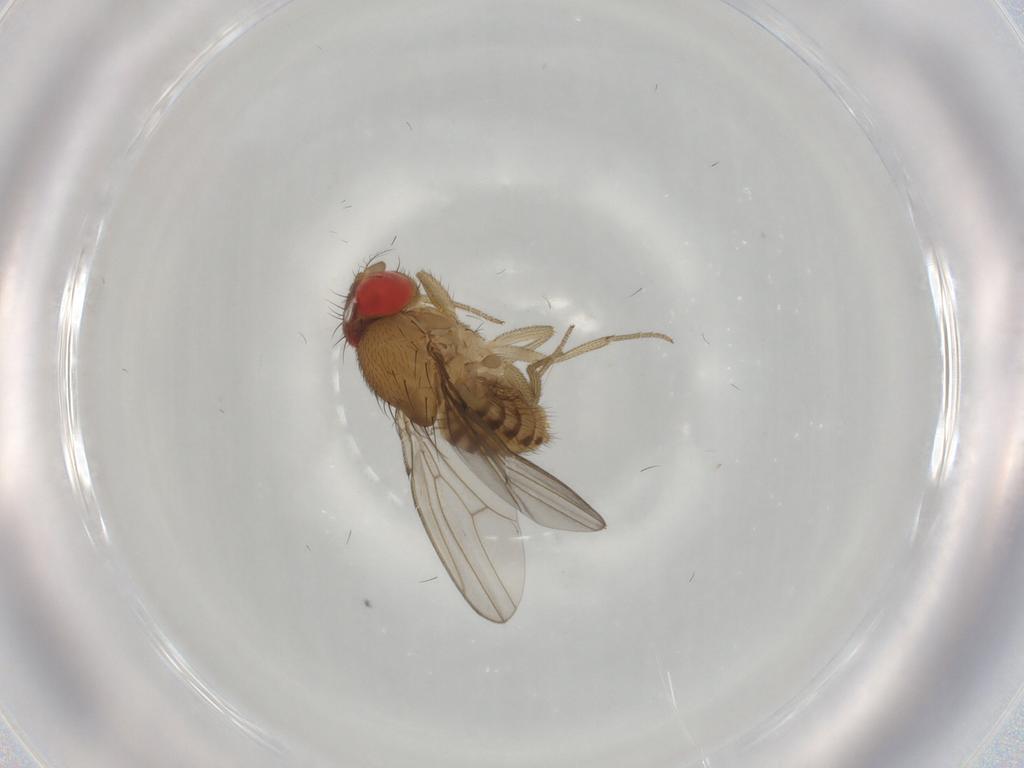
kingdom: Animalia
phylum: Arthropoda
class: Insecta
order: Diptera
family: Drosophilidae
